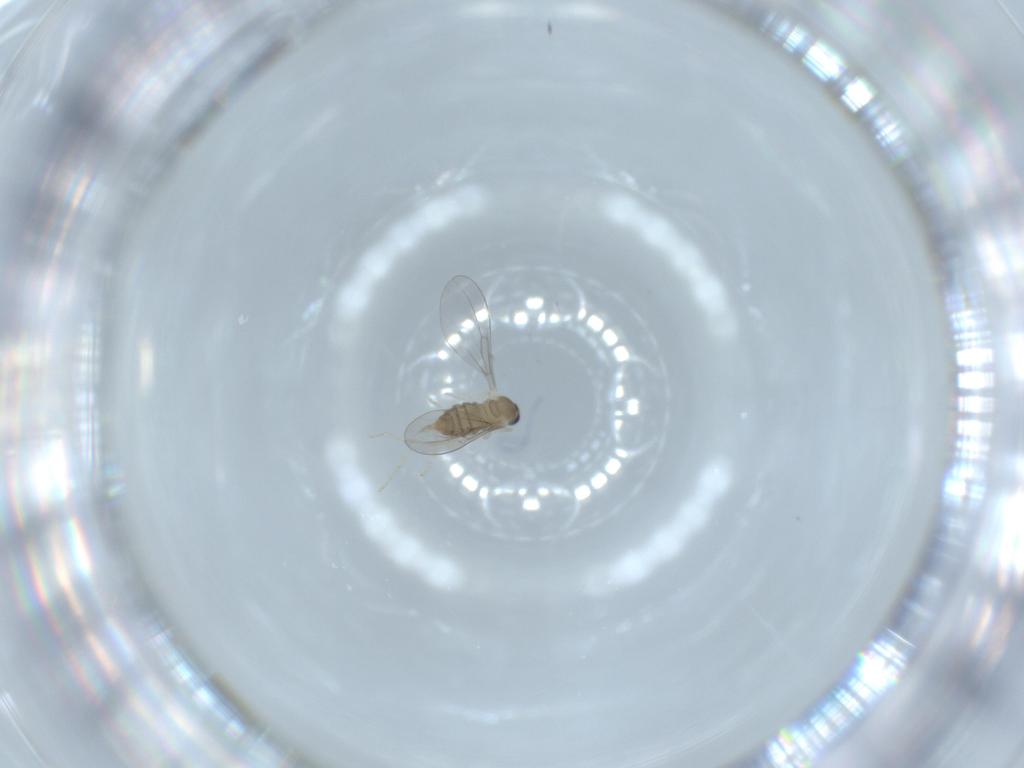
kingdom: Animalia
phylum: Arthropoda
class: Insecta
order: Diptera
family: Cecidomyiidae
